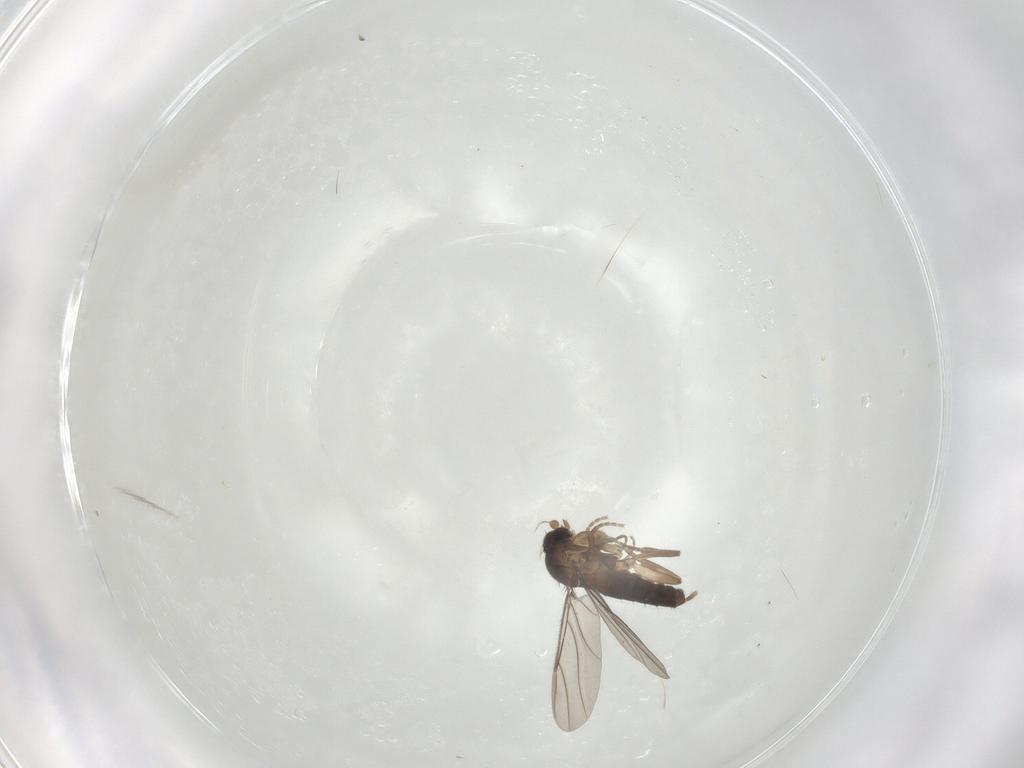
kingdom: Animalia
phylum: Arthropoda
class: Insecta
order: Diptera
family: Phoridae
